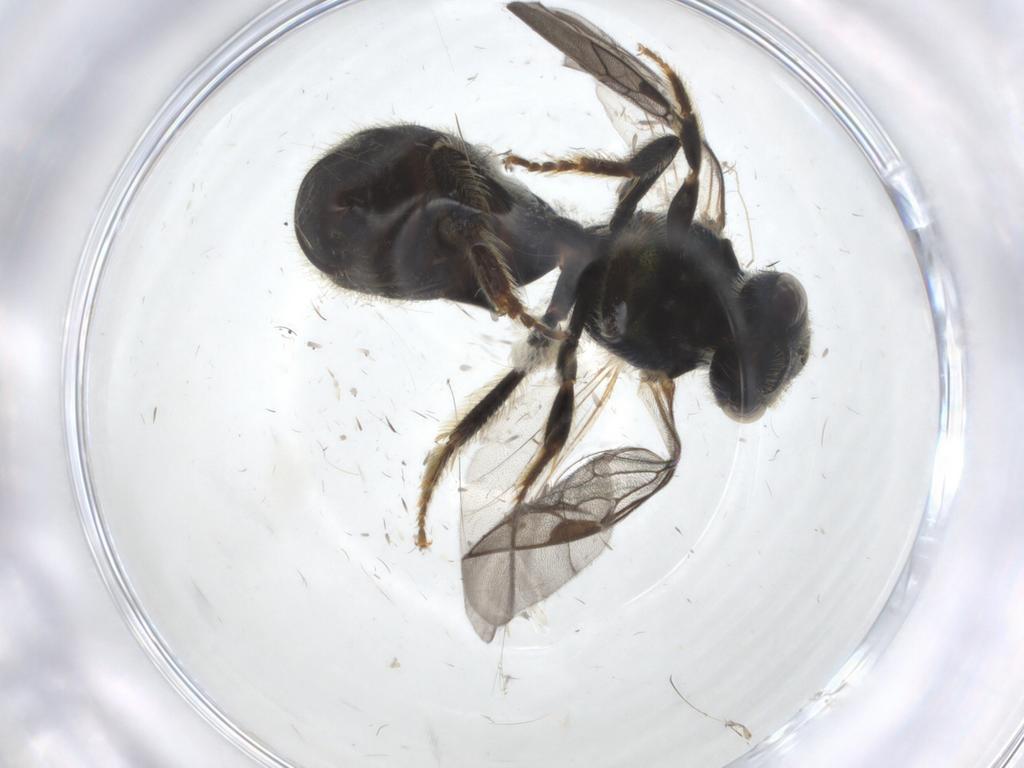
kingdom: Animalia
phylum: Arthropoda
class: Insecta
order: Hymenoptera
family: Halictidae
